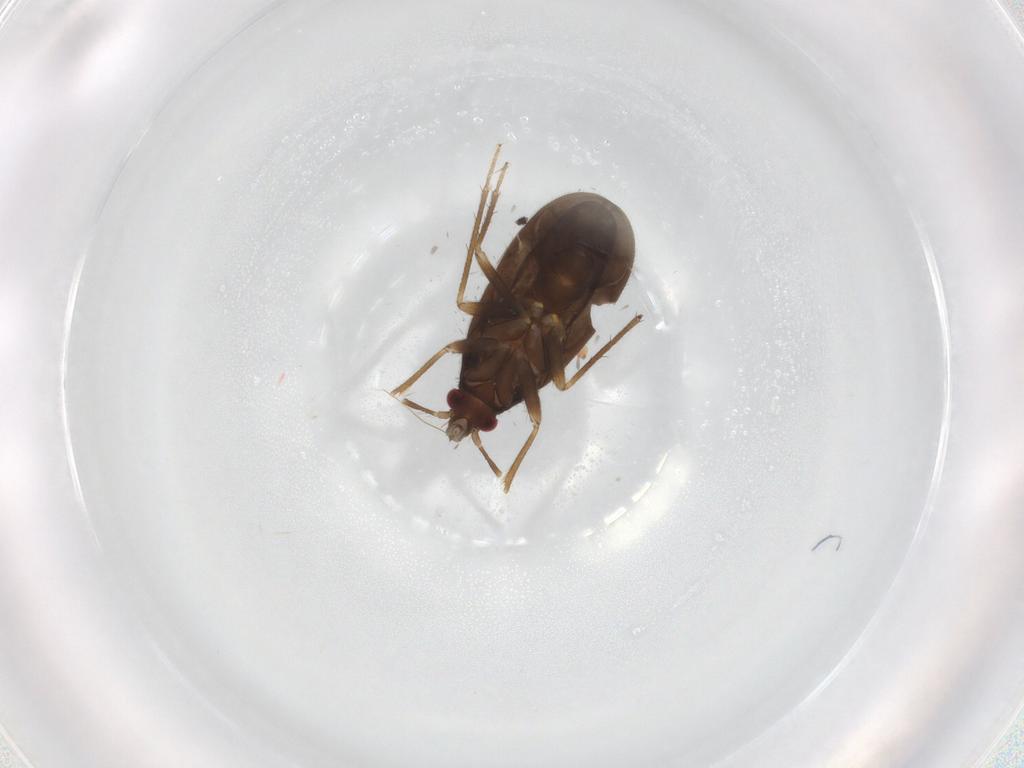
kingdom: Animalia
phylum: Arthropoda
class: Insecta
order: Hemiptera
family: Ceratocombidae
